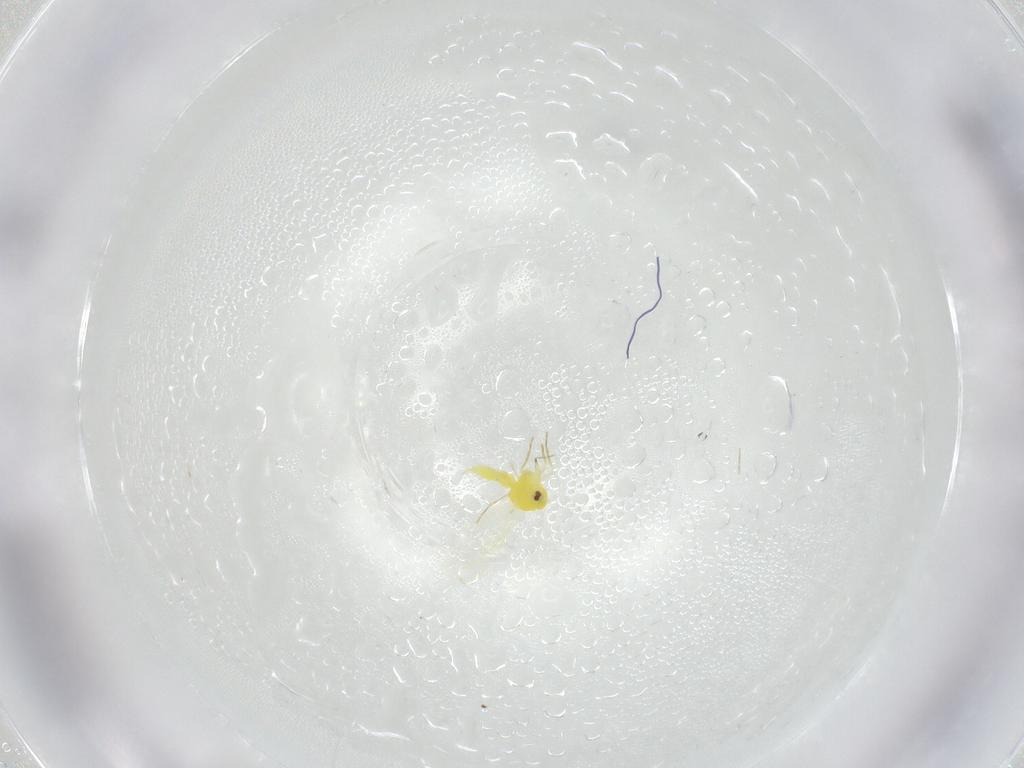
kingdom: Animalia
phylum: Arthropoda
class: Insecta
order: Hemiptera
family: Aleyrodidae
